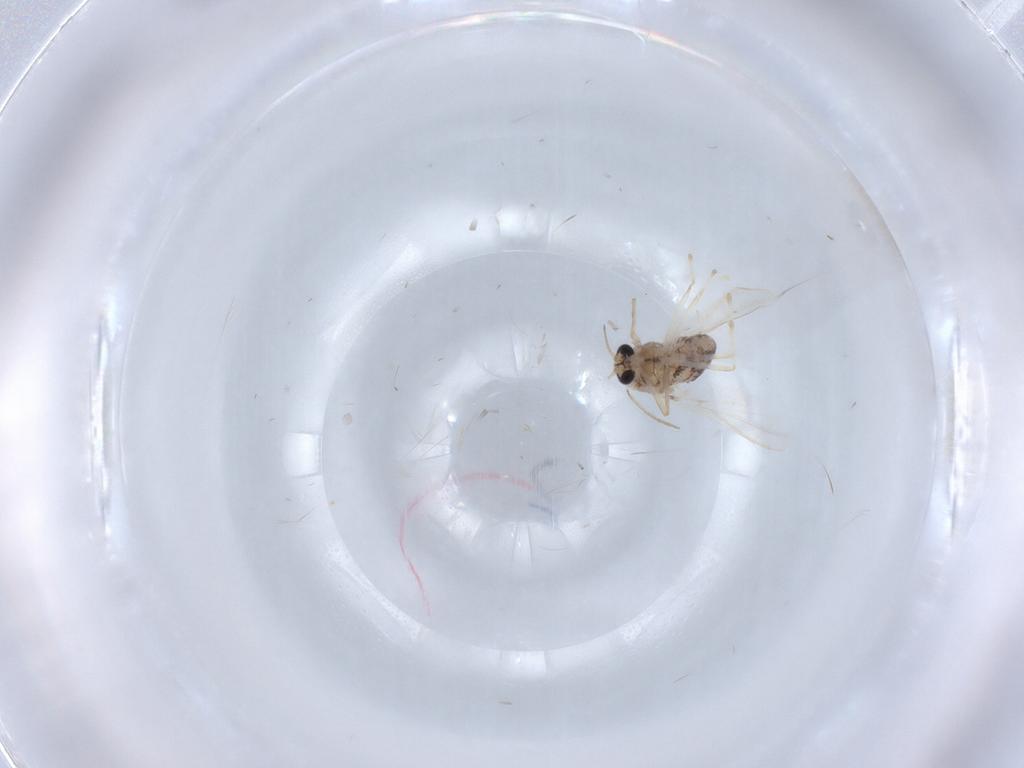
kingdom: Animalia
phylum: Arthropoda
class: Insecta
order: Diptera
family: Chironomidae
